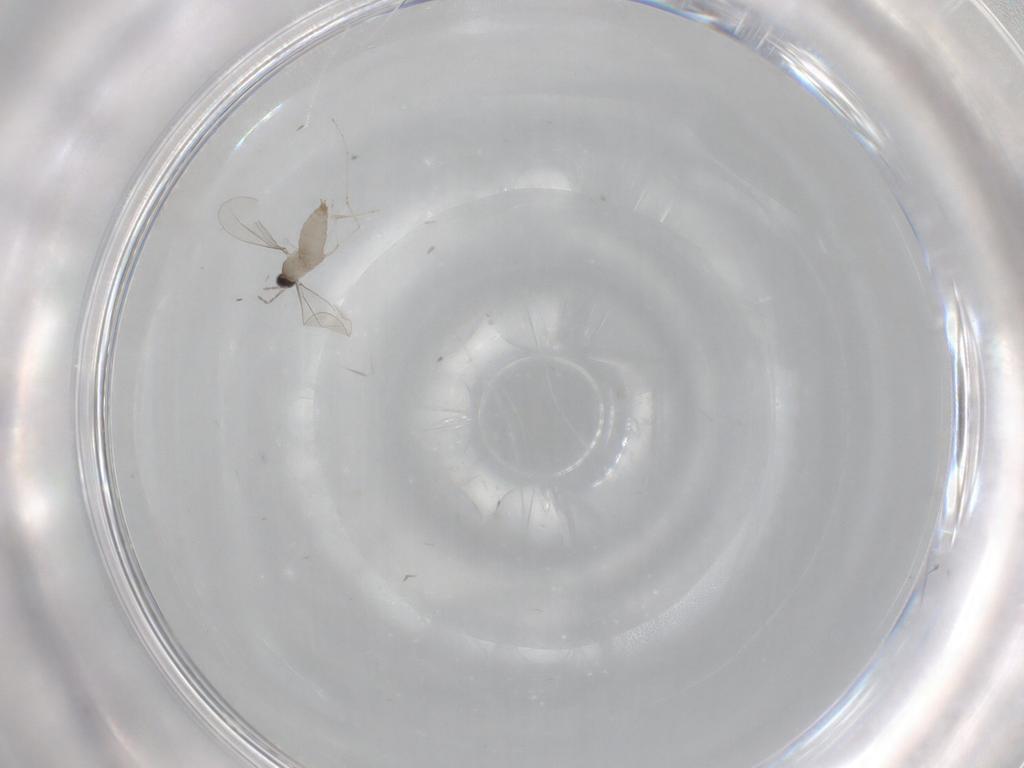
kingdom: Animalia
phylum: Arthropoda
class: Insecta
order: Diptera
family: Cecidomyiidae
